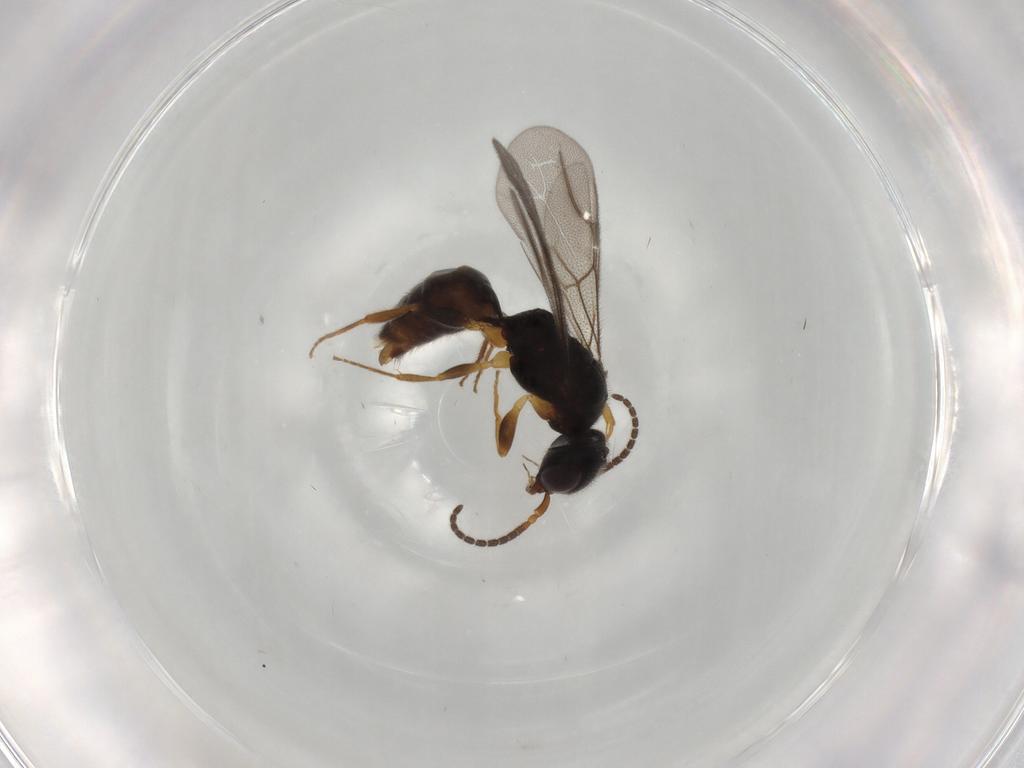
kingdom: Animalia
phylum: Arthropoda
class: Insecta
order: Hymenoptera
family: Bethylidae
